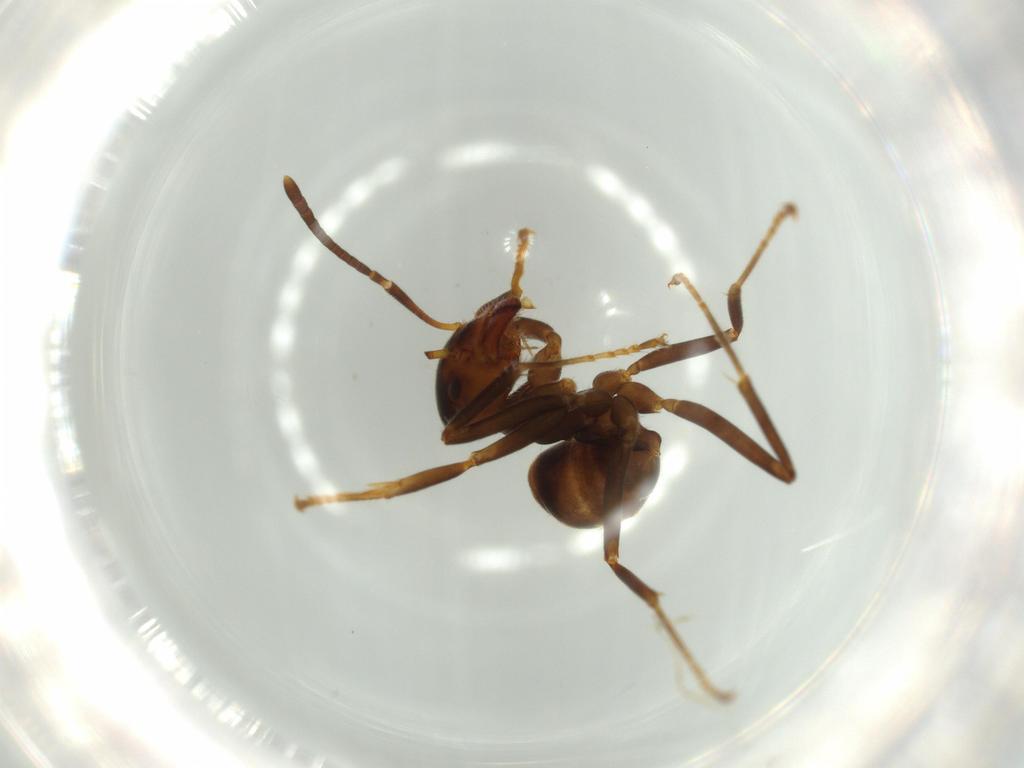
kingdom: Animalia
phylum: Arthropoda
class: Insecta
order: Hymenoptera
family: Formicidae
